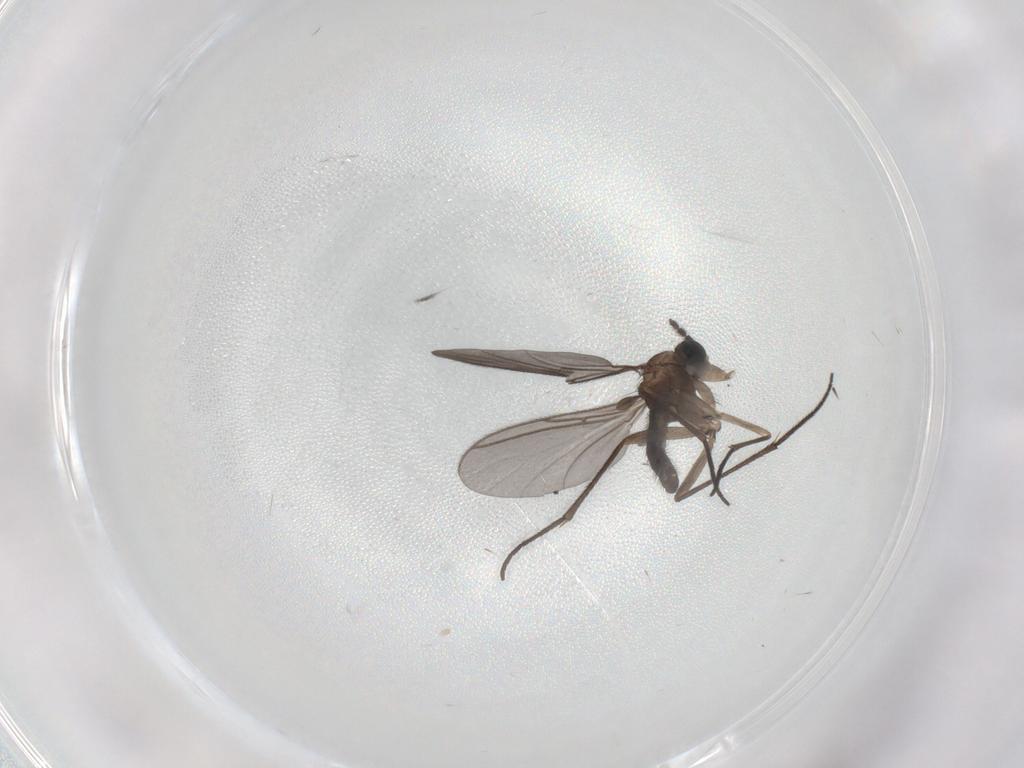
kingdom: Animalia
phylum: Arthropoda
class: Insecta
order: Diptera
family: Sciaridae
